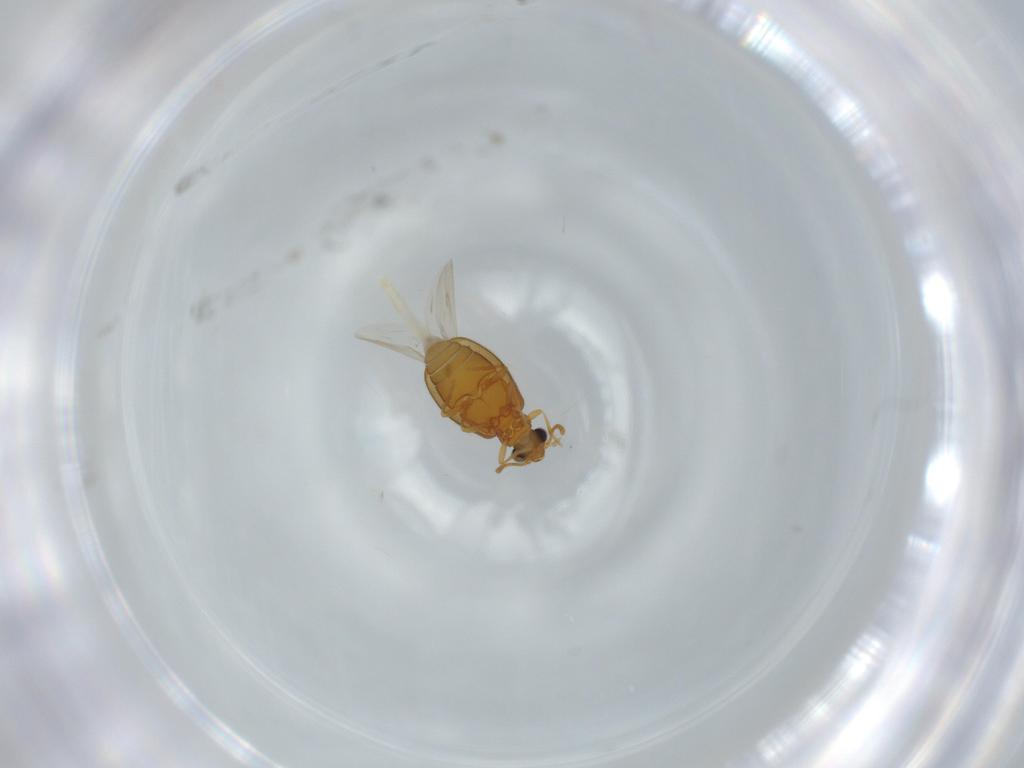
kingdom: Animalia
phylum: Arthropoda
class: Insecta
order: Coleoptera
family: Aderidae
